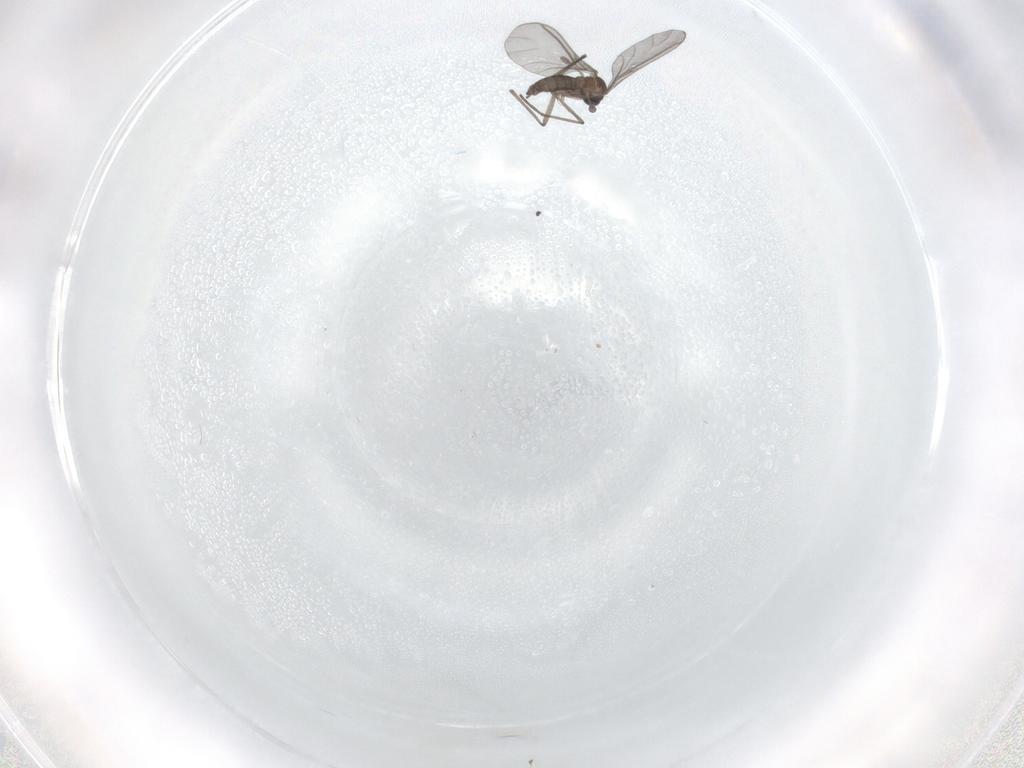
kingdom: Animalia
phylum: Arthropoda
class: Insecta
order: Diptera
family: Sciaridae
